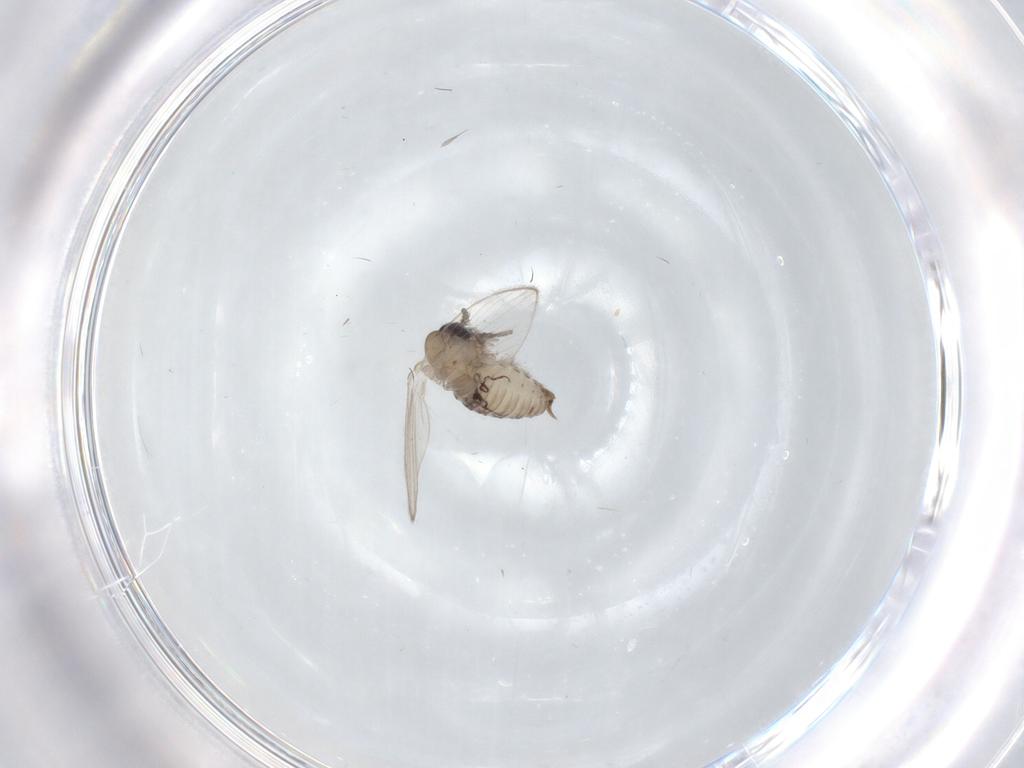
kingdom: Animalia
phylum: Arthropoda
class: Insecta
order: Diptera
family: Psychodidae
